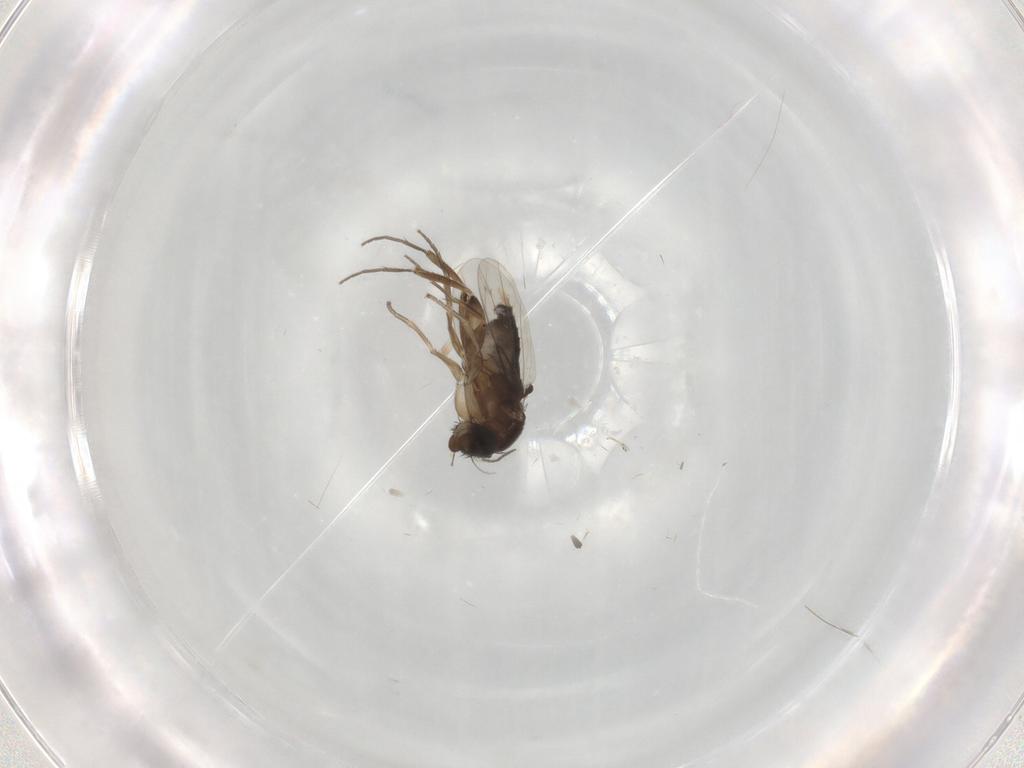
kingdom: Animalia
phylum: Arthropoda
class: Insecta
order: Diptera
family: Phoridae
